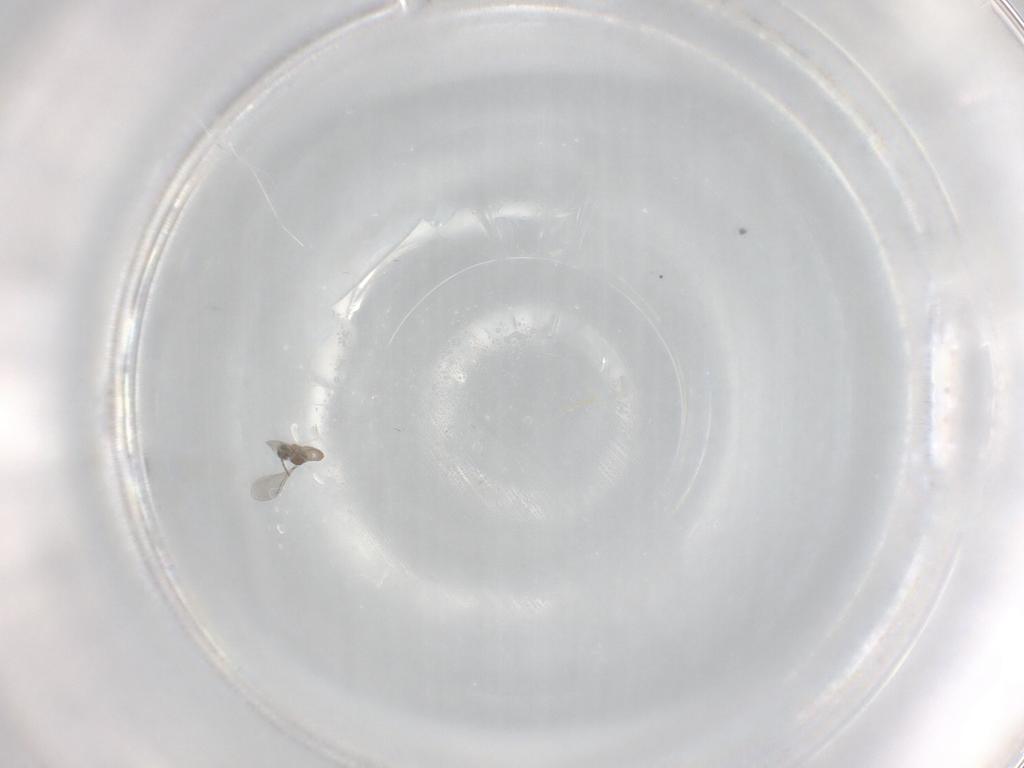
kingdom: Animalia
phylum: Arthropoda
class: Insecta
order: Diptera
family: Cecidomyiidae
